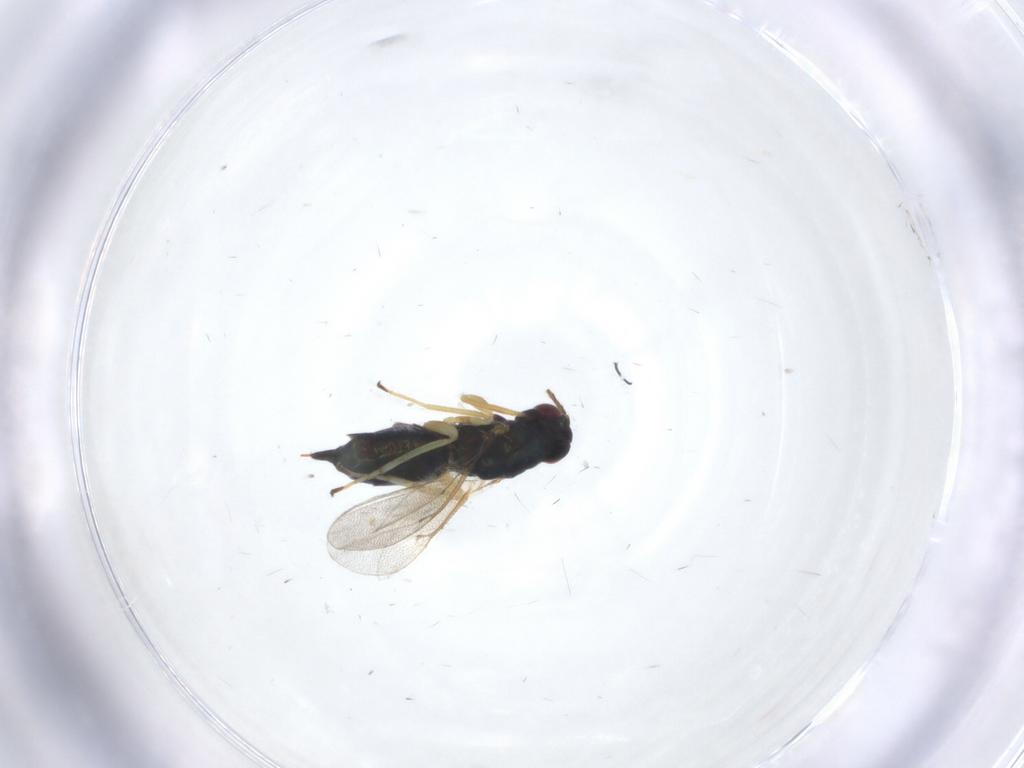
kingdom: Animalia
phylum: Arthropoda
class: Insecta
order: Hymenoptera
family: Eulophidae
